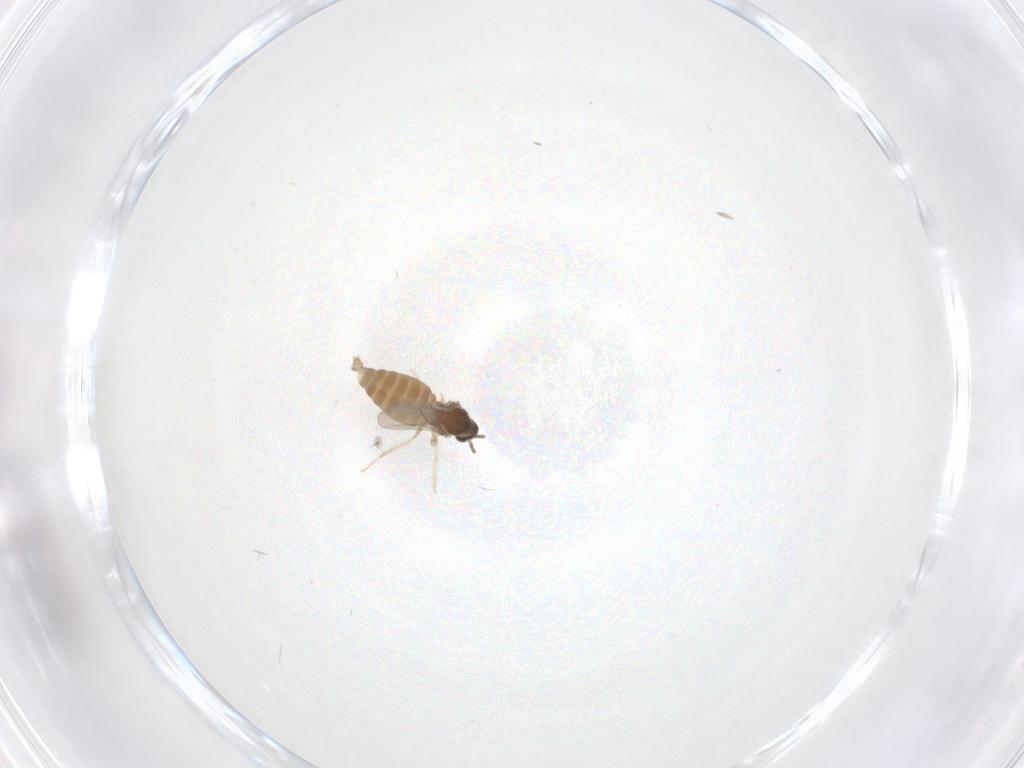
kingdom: Animalia
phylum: Arthropoda
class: Insecta
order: Diptera
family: Cecidomyiidae
